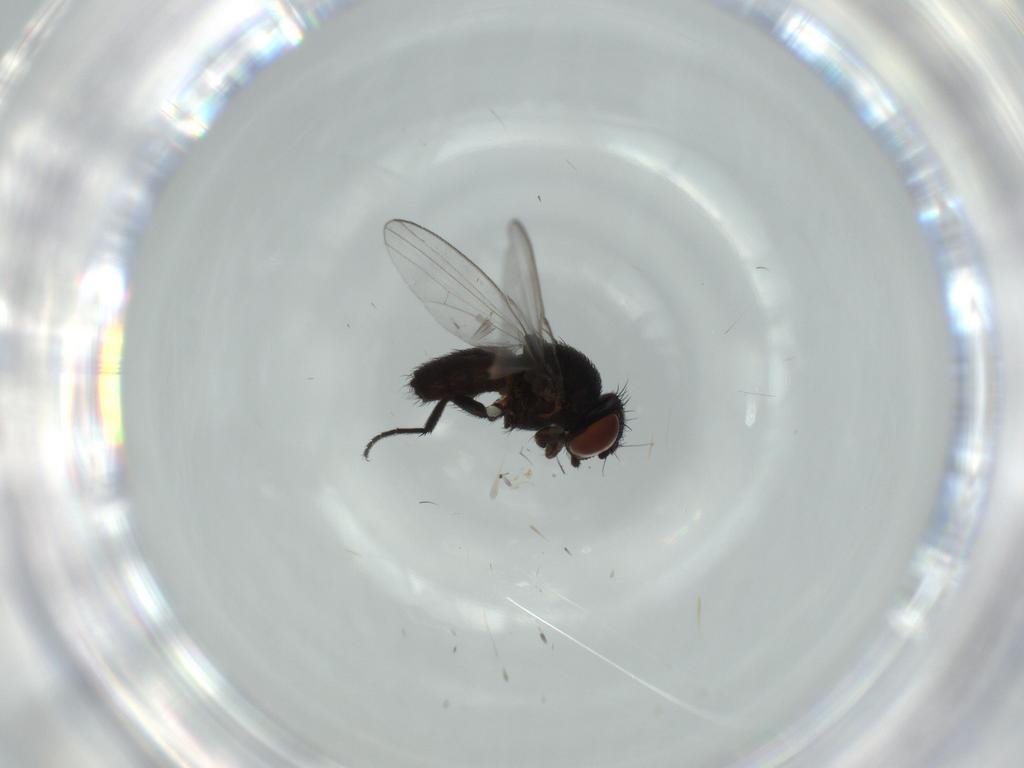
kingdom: Animalia
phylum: Arthropoda
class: Insecta
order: Diptera
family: Milichiidae
